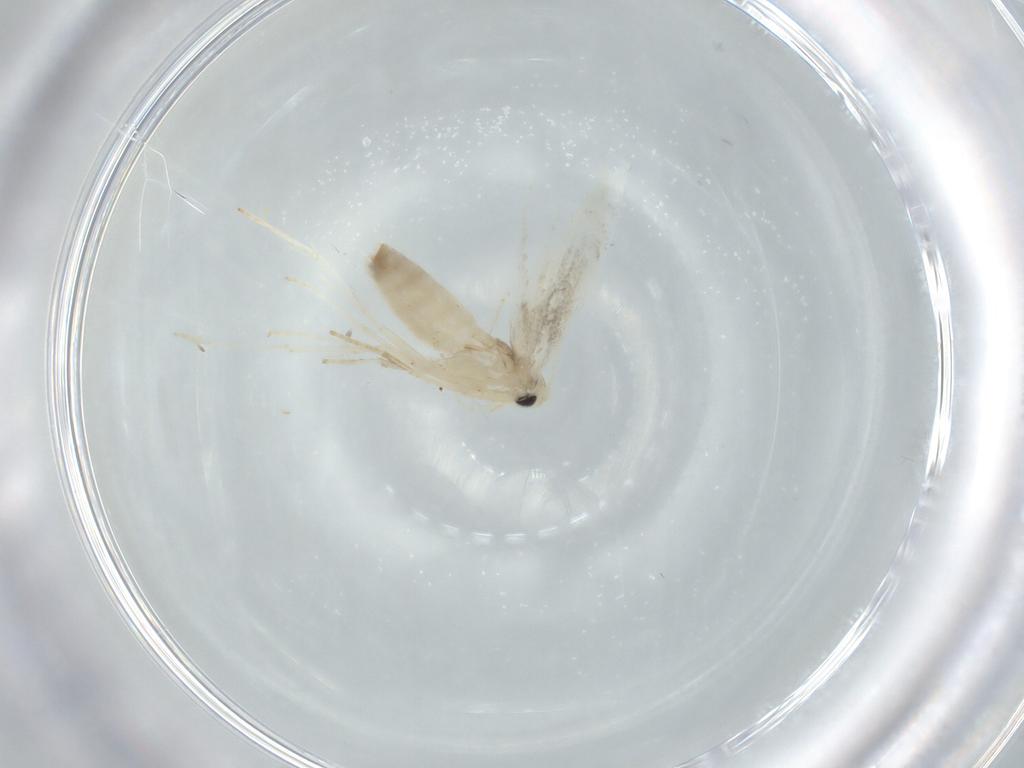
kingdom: Animalia
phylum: Arthropoda
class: Insecta
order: Lepidoptera
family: Gracillariidae
